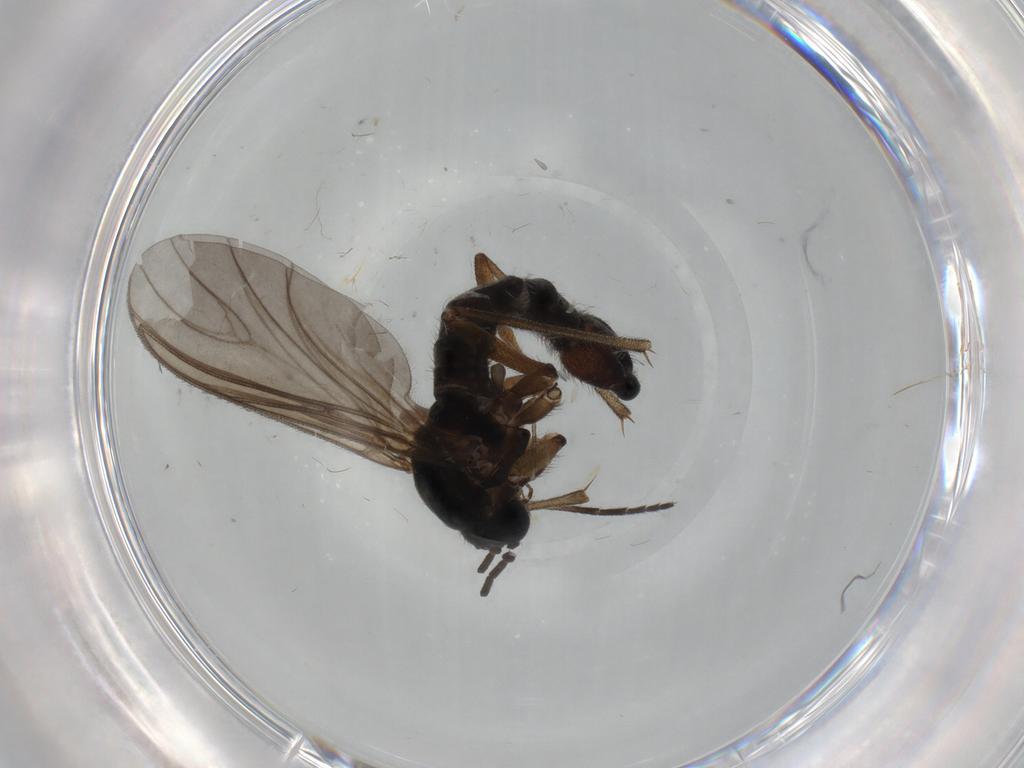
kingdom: Animalia
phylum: Arthropoda
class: Insecta
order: Diptera
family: Sciaridae
